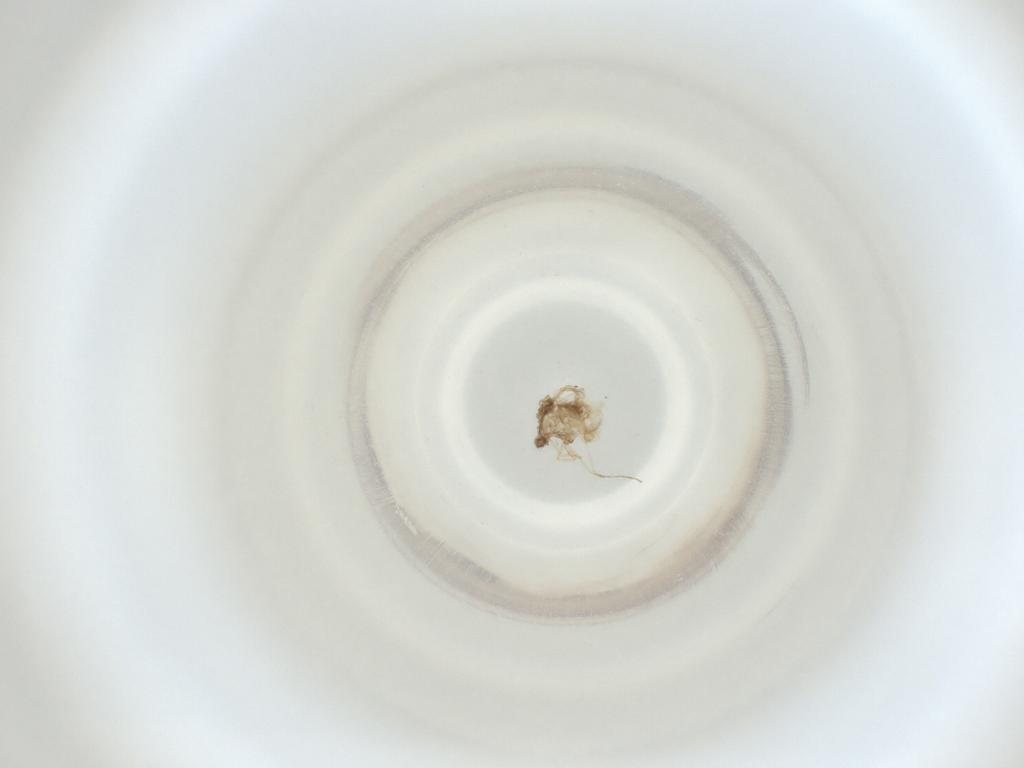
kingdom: Animalia
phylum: Arthropoda
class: Insecta
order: Diptera
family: Cecidomyiidae
